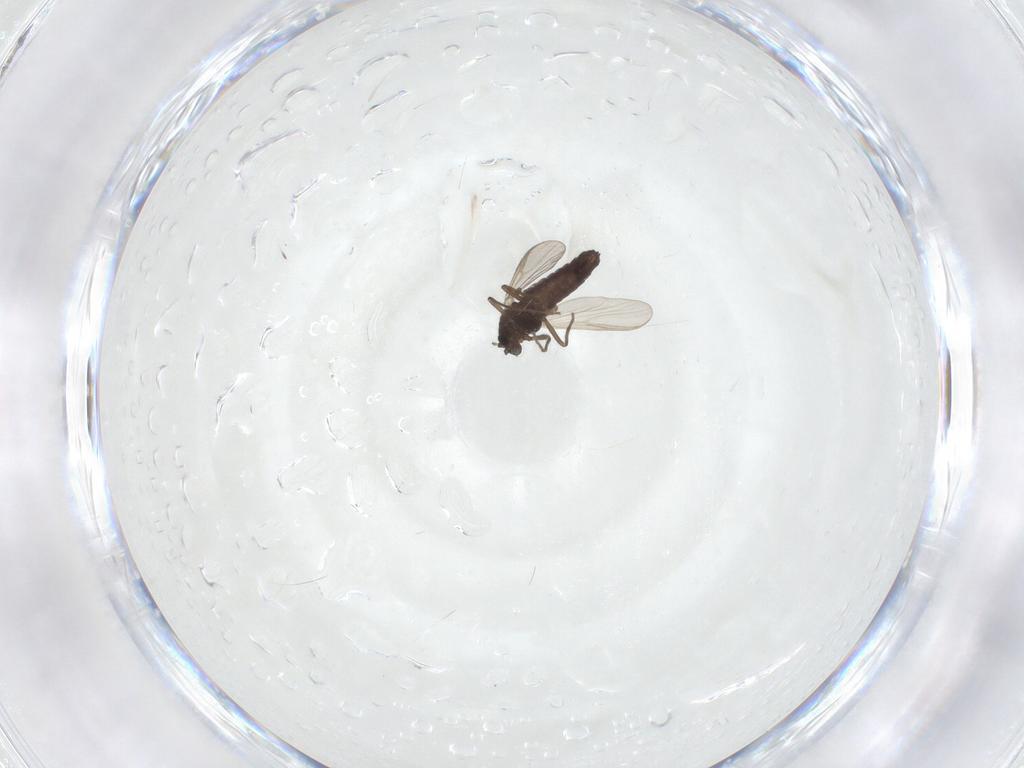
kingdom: Animalia
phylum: Arthropoda
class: Insecta
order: Diptera
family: Chironomidae
